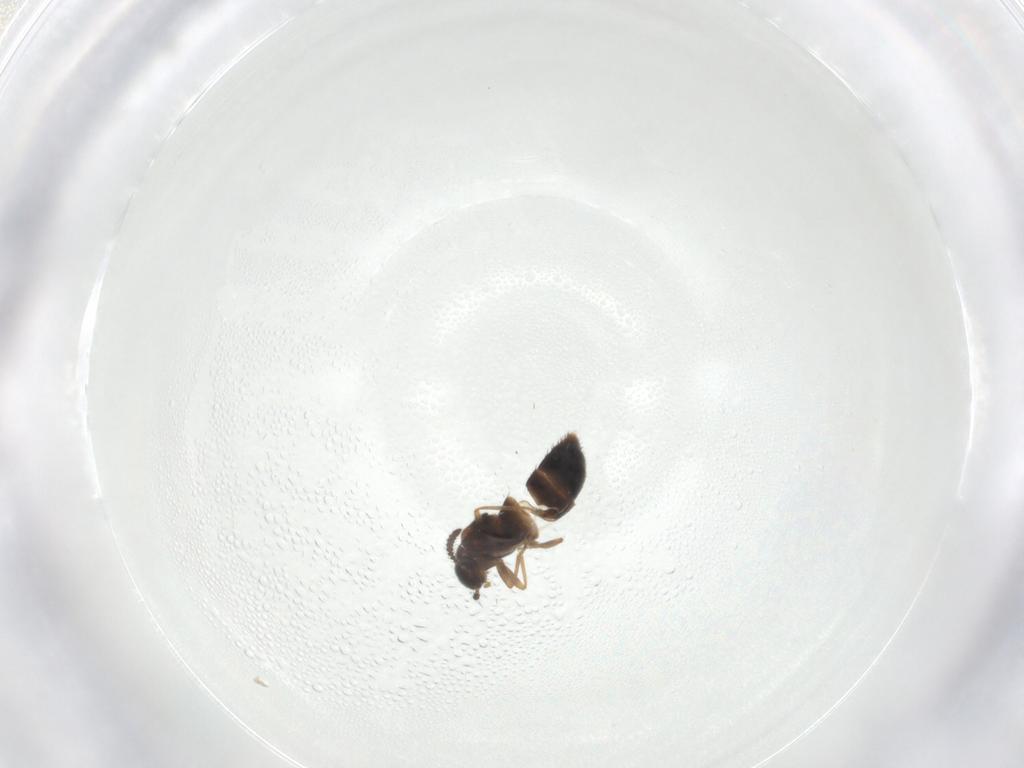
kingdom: Animalia
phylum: Arthropoda
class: Insecta
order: Coleoptera
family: Staphylinidae
